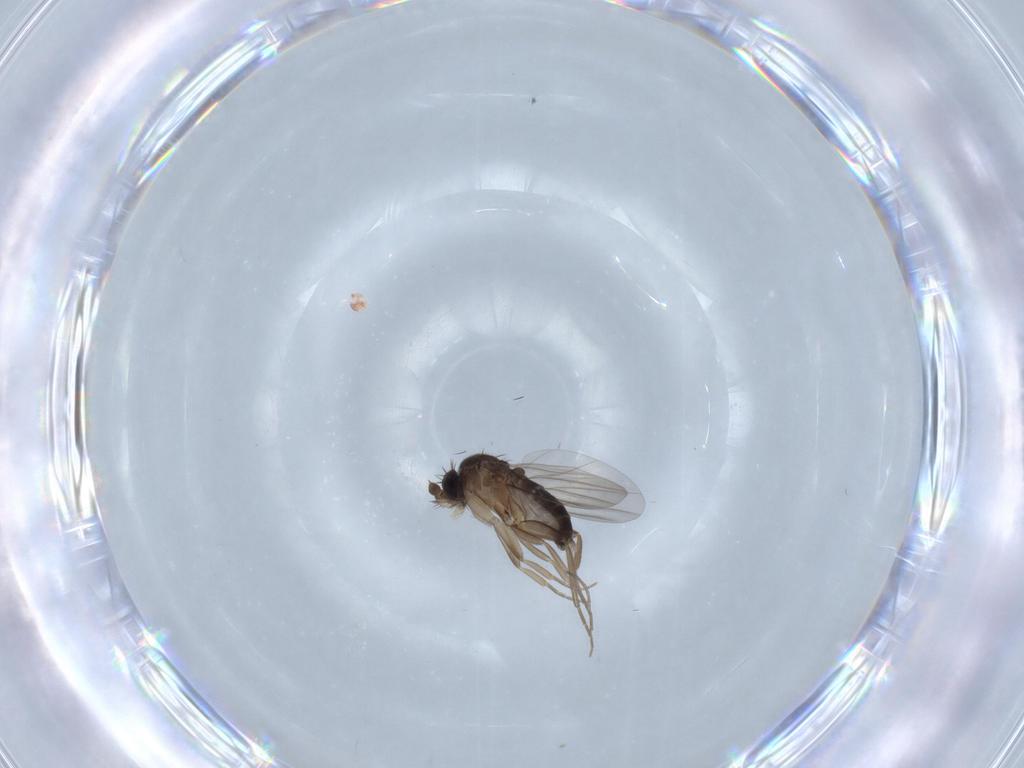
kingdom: Animalia
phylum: Arthropoda
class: Insecta
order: Diptera
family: Phoridae
